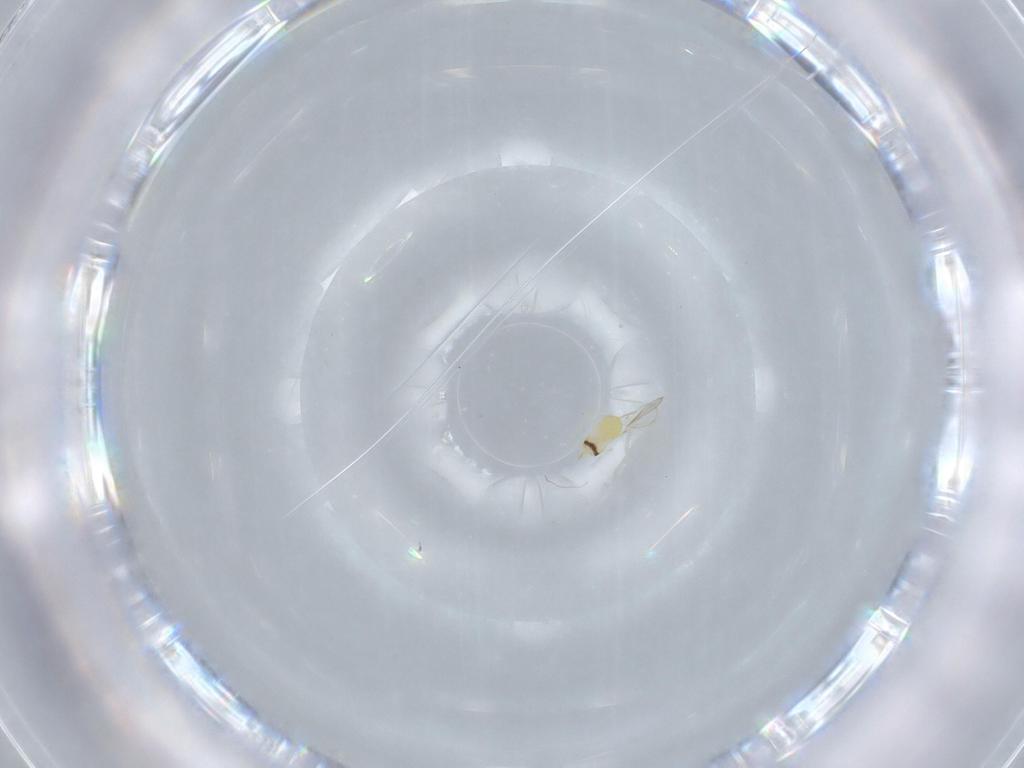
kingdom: Animalia
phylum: Arthropoda
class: Insecta
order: Hymenoptera
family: Aphelinidae
